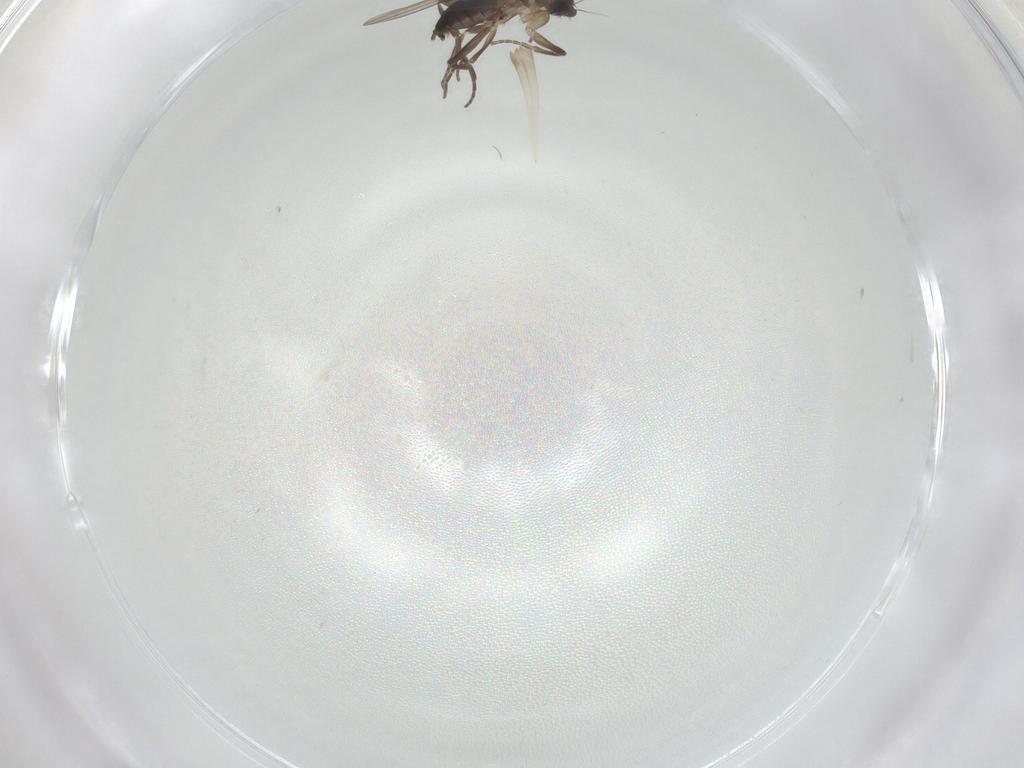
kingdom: Animalia
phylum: Arthropoda
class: Insecta
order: Diptera
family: Phoridae
